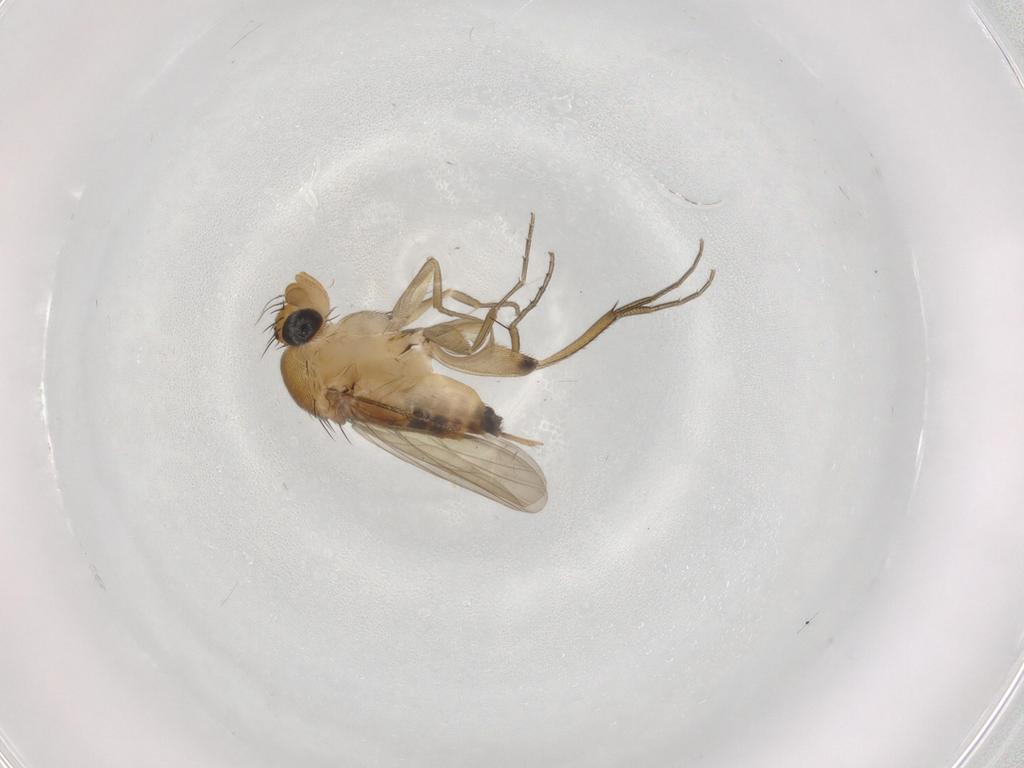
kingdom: Animalia
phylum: Arthropoda
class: Insecta
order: Diptera
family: Phoridae
